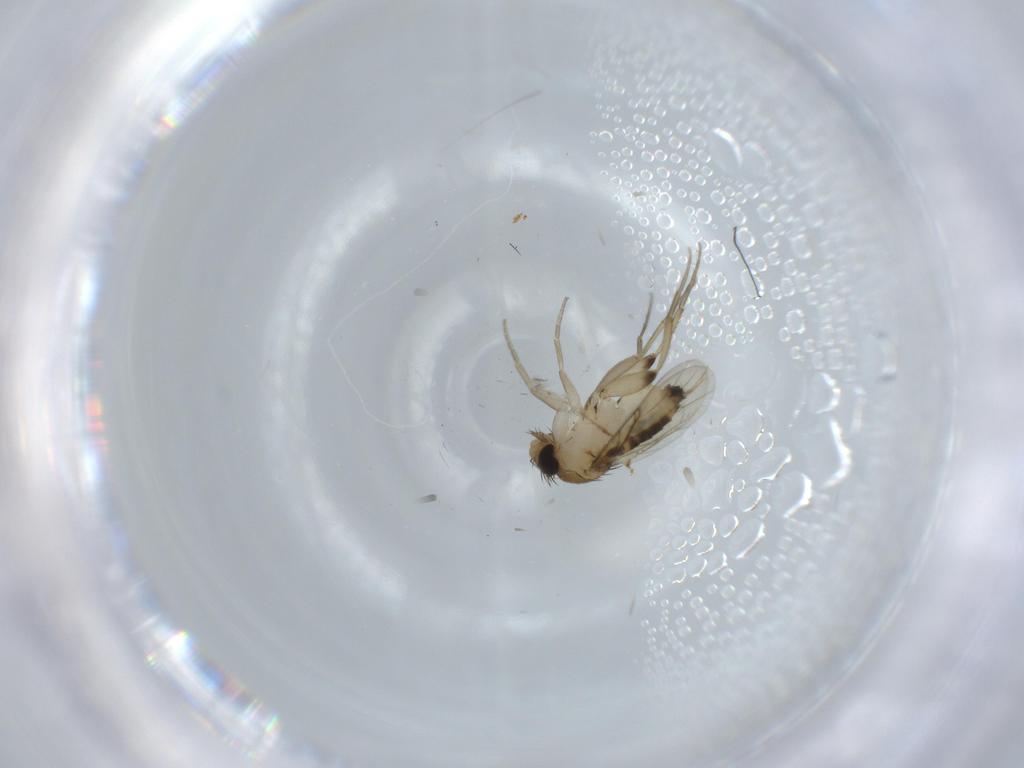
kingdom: Animalia
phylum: Arthropoda
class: Insecta
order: Diptera
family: Phoridae
